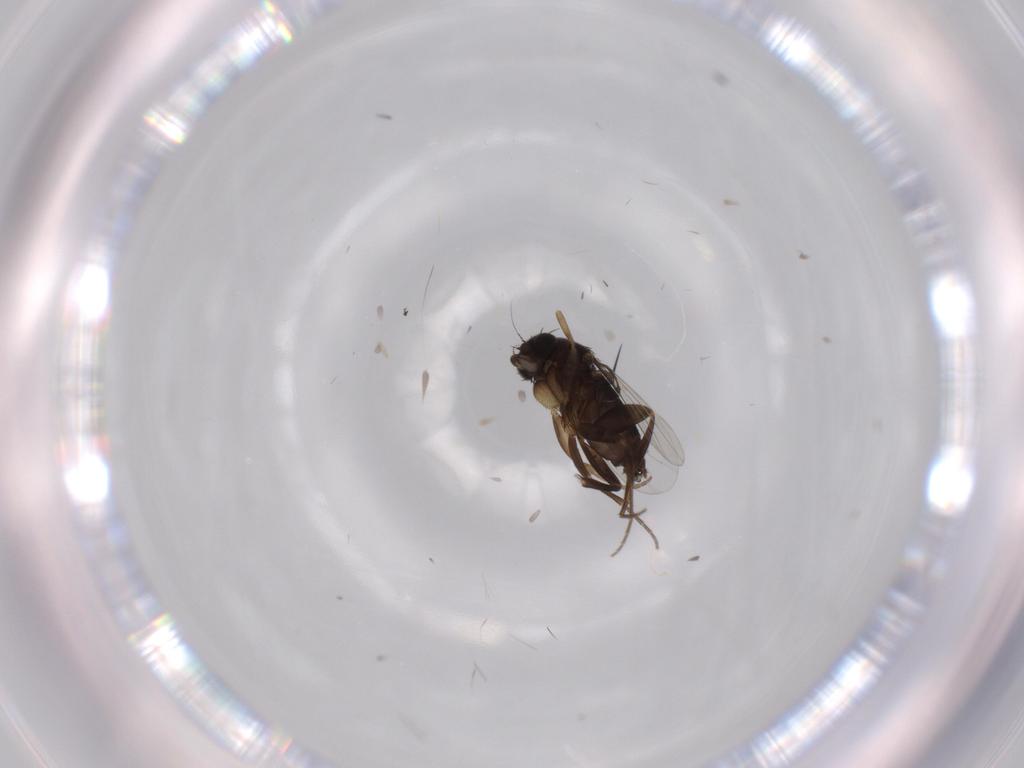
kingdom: Animalia
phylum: Arthropoda
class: Insecta
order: Diptera
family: Phoridae
